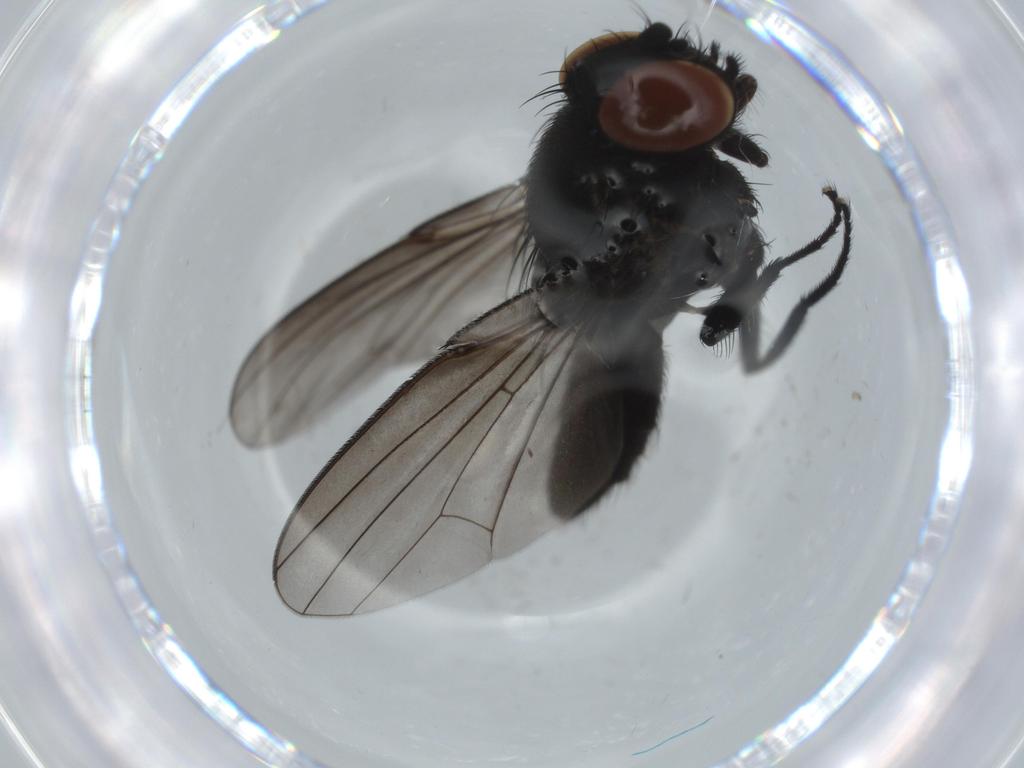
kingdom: Animalia
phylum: Arthropoda
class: Insecta
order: Diptera
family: Milichiidae
